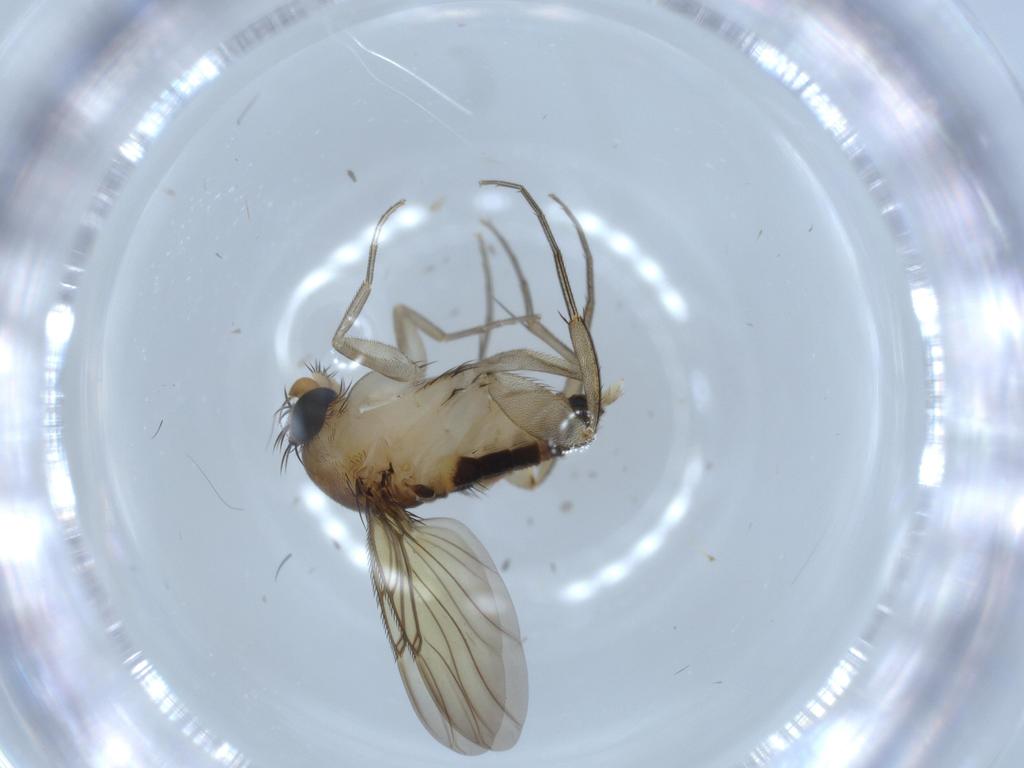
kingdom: Animalia
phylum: Arthropoda
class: Insecta
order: Diptera
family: Phoridae
